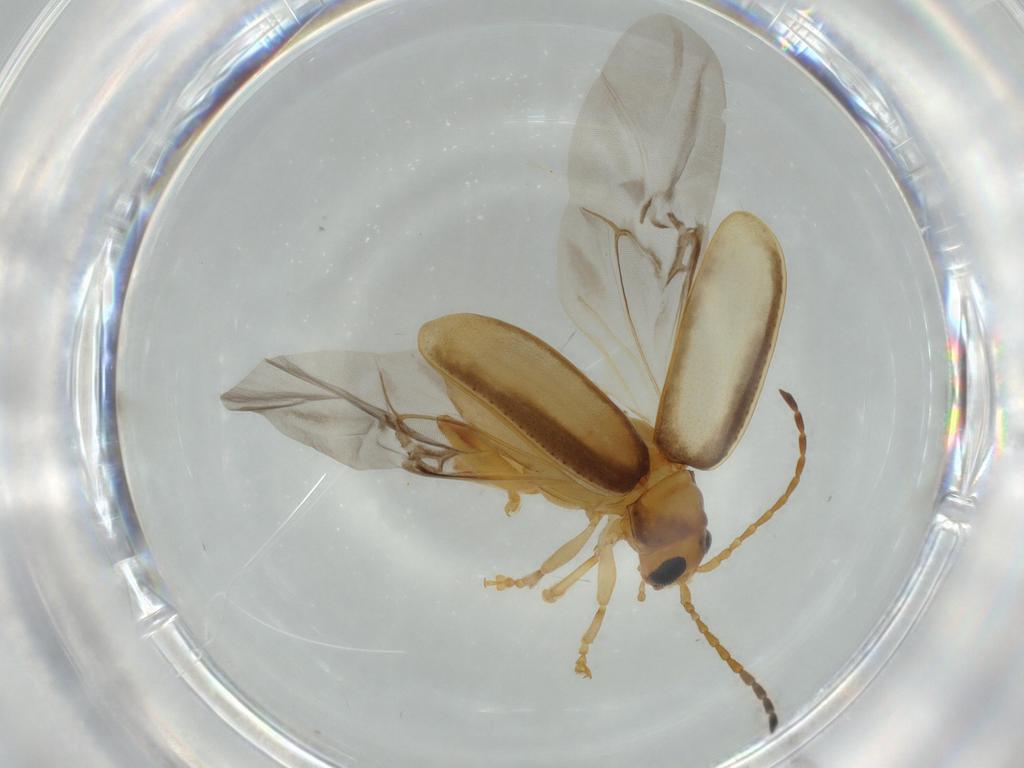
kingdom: Animalia
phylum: Arthropoda
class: Insecta
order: Coleoptera
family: Chrysomelidae
